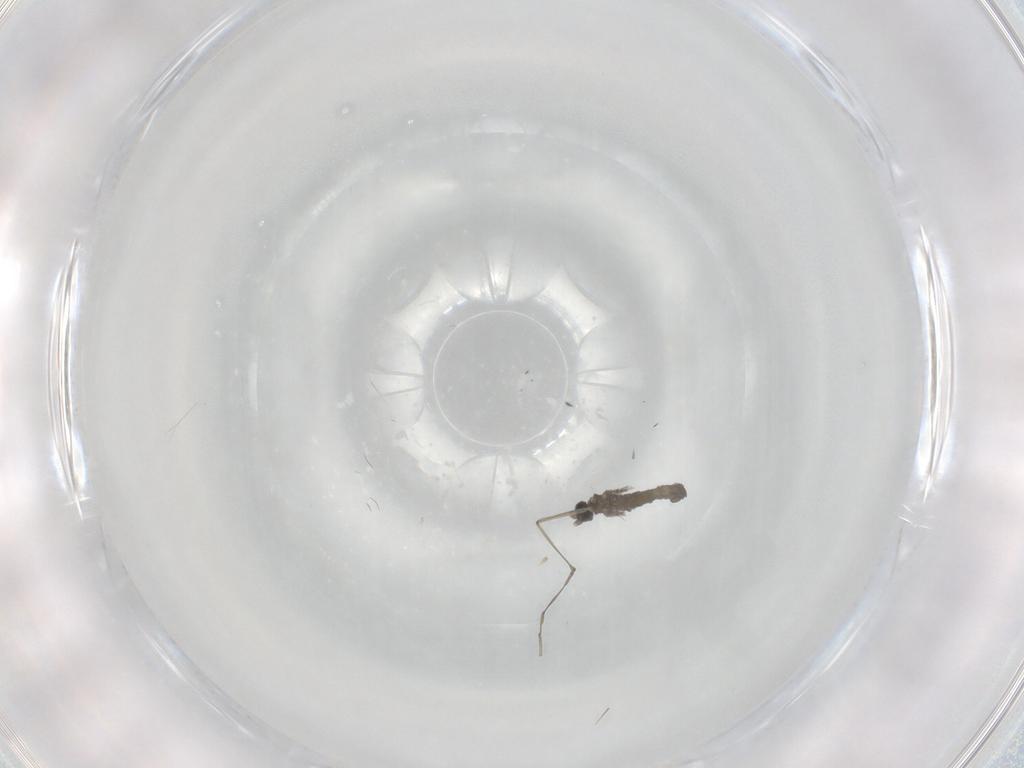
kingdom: Animalia
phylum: Arthropoda
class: Insecta
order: Diptera
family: Cecidomyiidae
